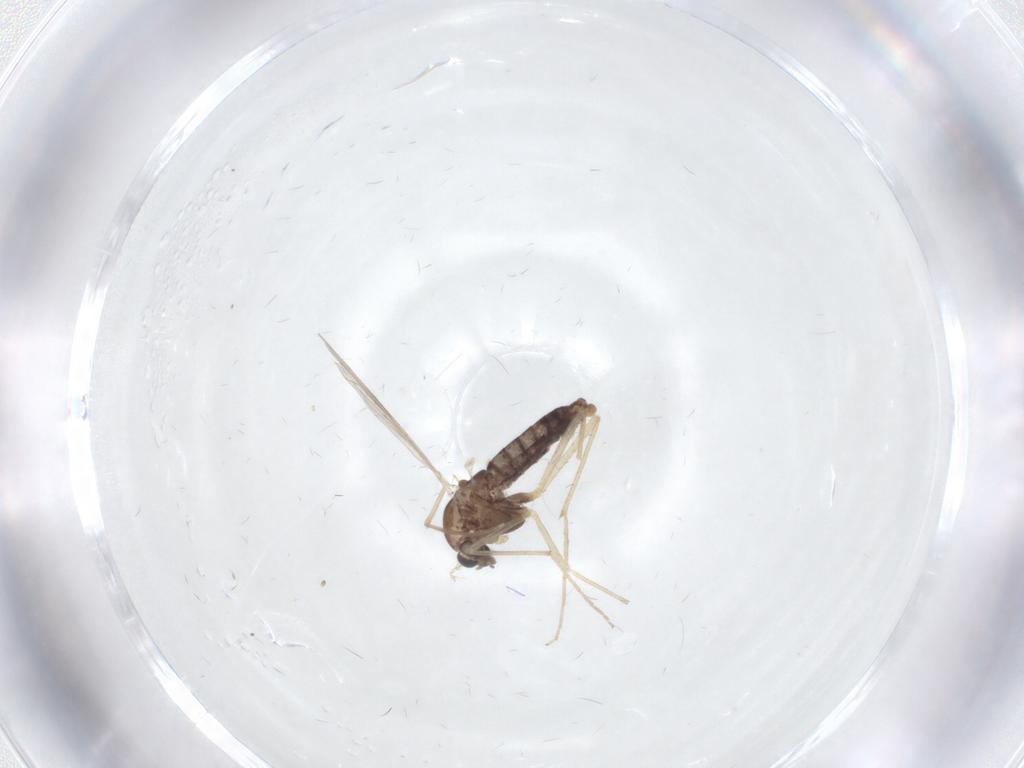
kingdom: Animalia
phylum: Arthropoda
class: Insecta
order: Diptera
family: Chironomidae
